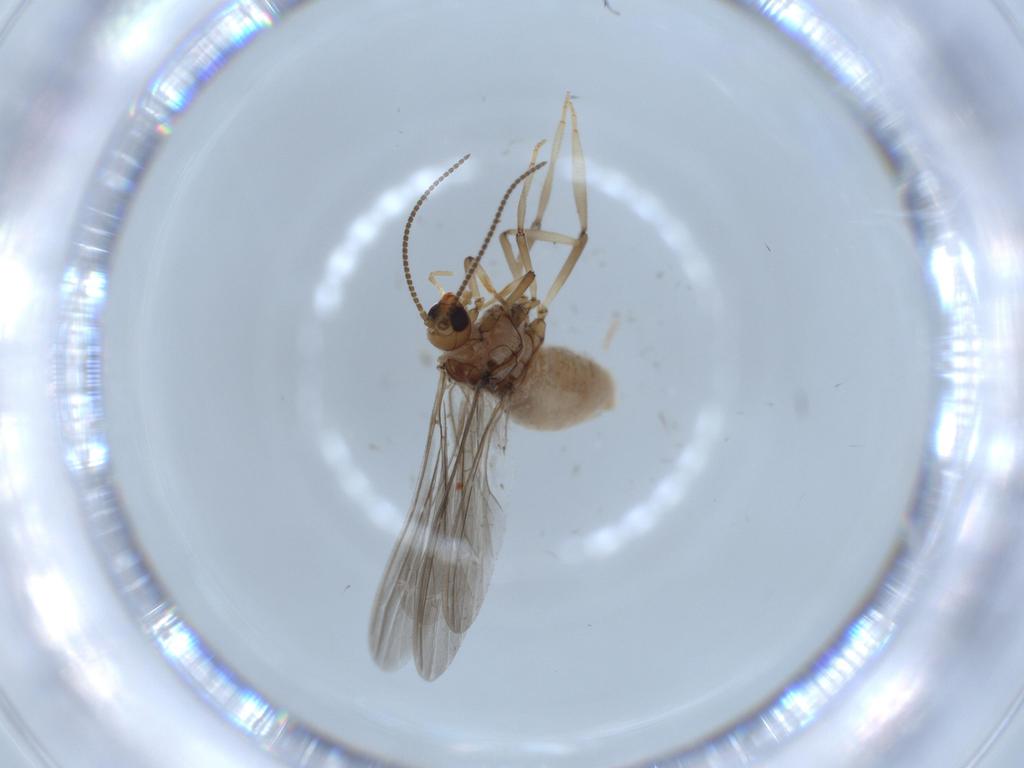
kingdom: Animalia
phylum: Arthropoda
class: Insecta
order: Neuroptera
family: Coniopterygidae
